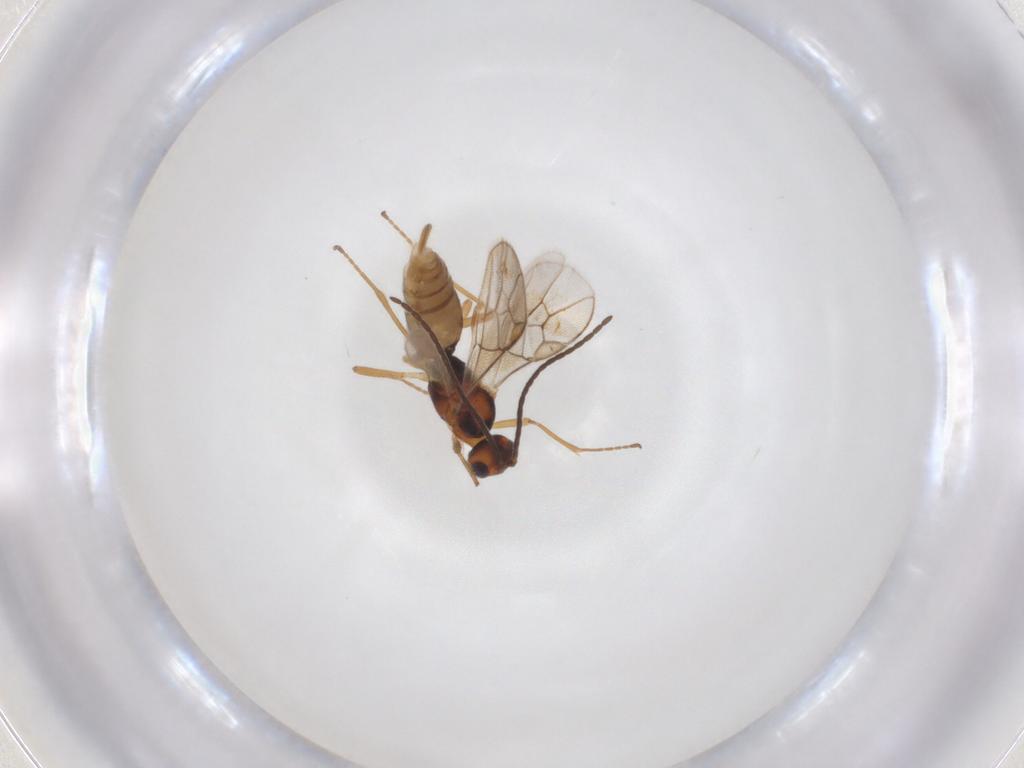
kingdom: Animalia
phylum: Arthropoda
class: Insecta
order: Hymenoptera
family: Braconidae
